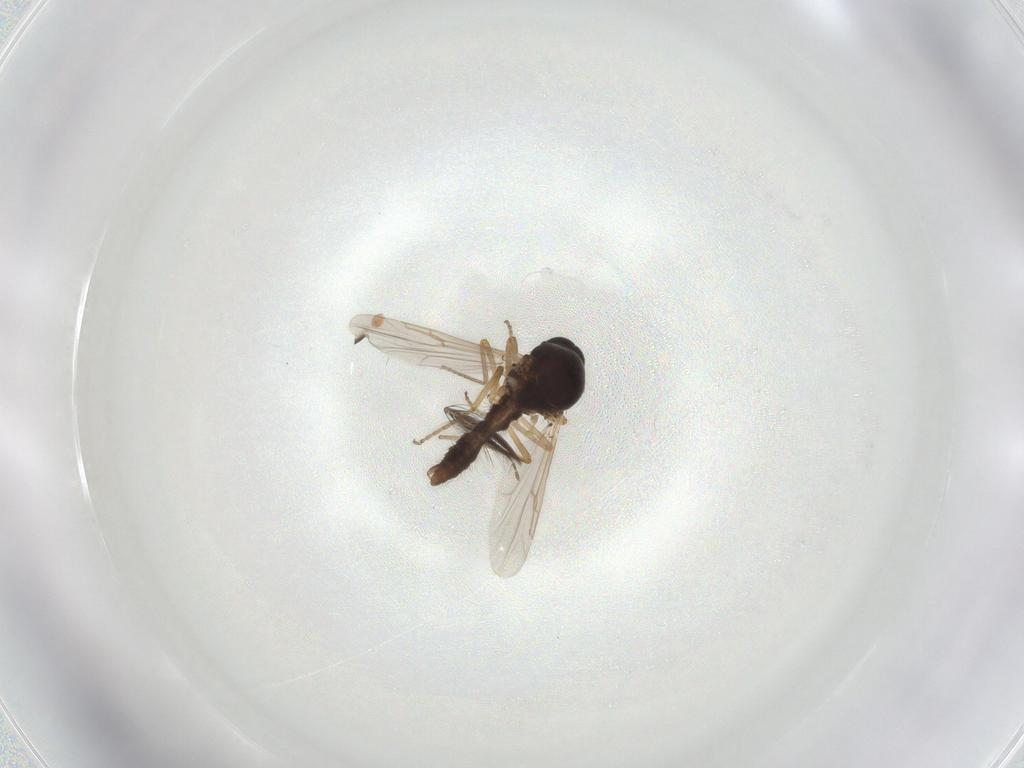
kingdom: Animalia
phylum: Arthropoda
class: Insecta
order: Diptera
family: Ceratopogonidae
